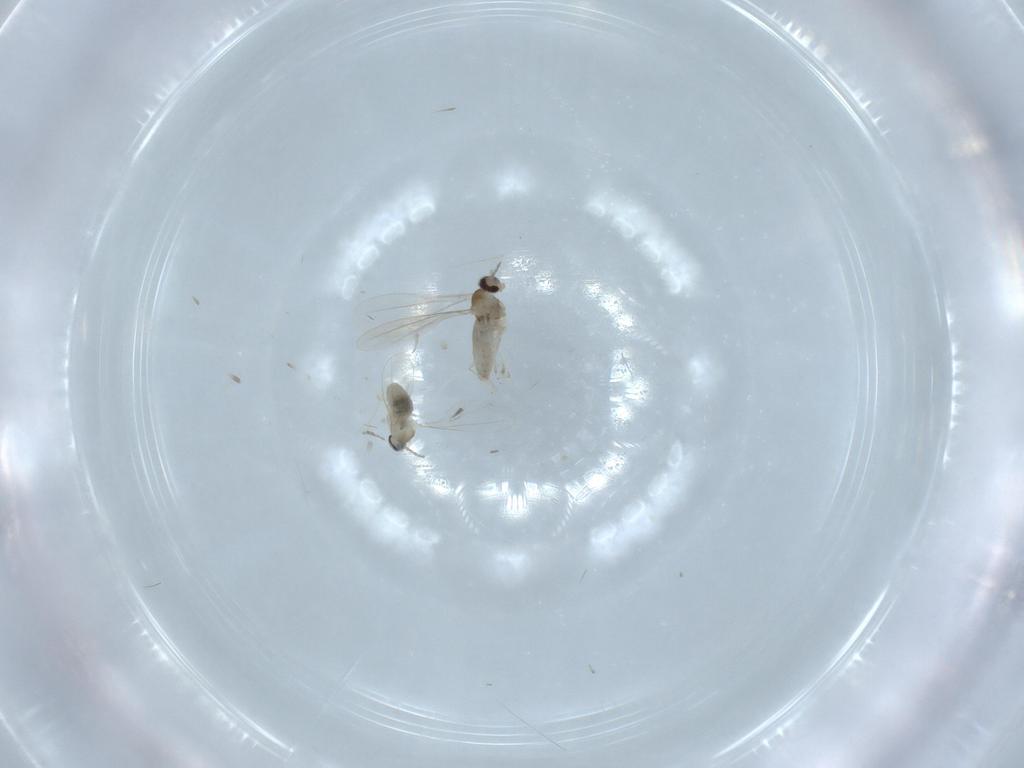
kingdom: Animalia
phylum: Arthropoda
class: Insecta
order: Diptera
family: Cecidomyiidae
